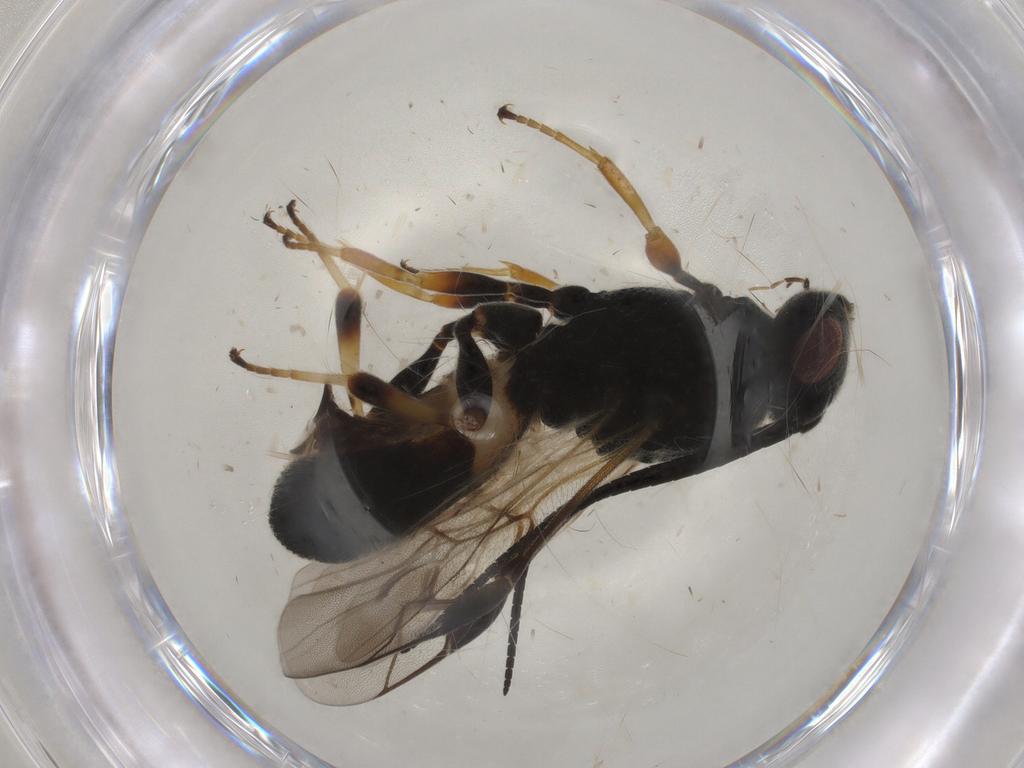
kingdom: Animalia
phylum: Arthropoda
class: Insecta
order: Hymenoptera
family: Braconidae
